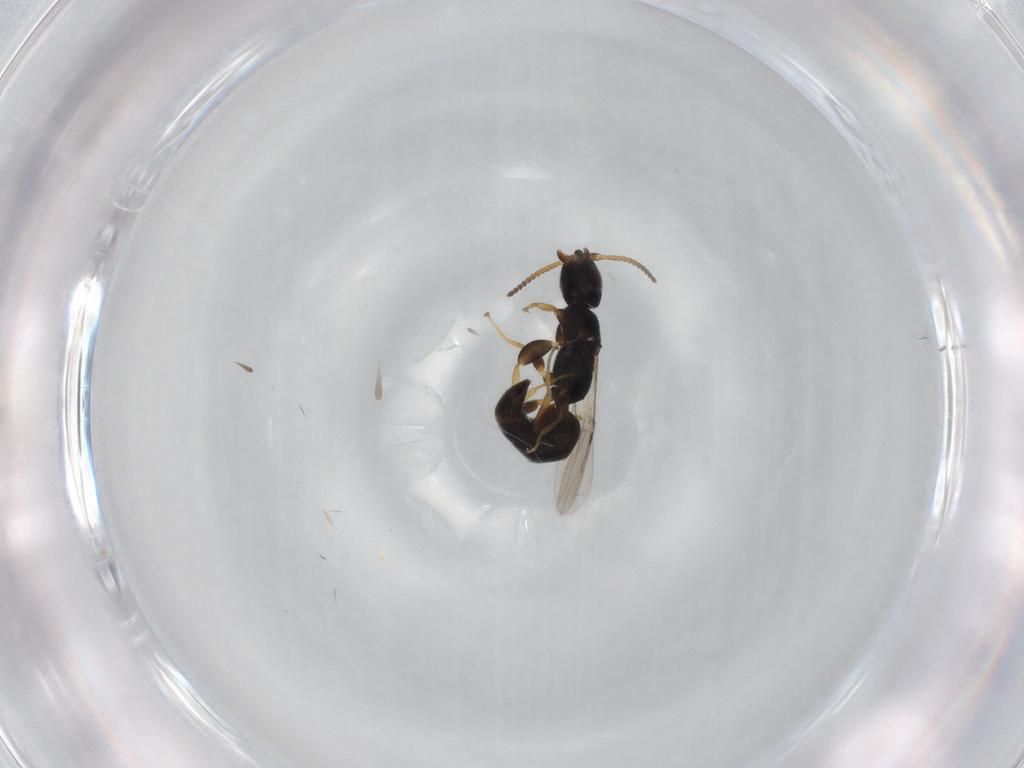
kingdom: Animalia
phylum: Arthropoda
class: Insecta
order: Hymenoptera
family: Bethylidae
